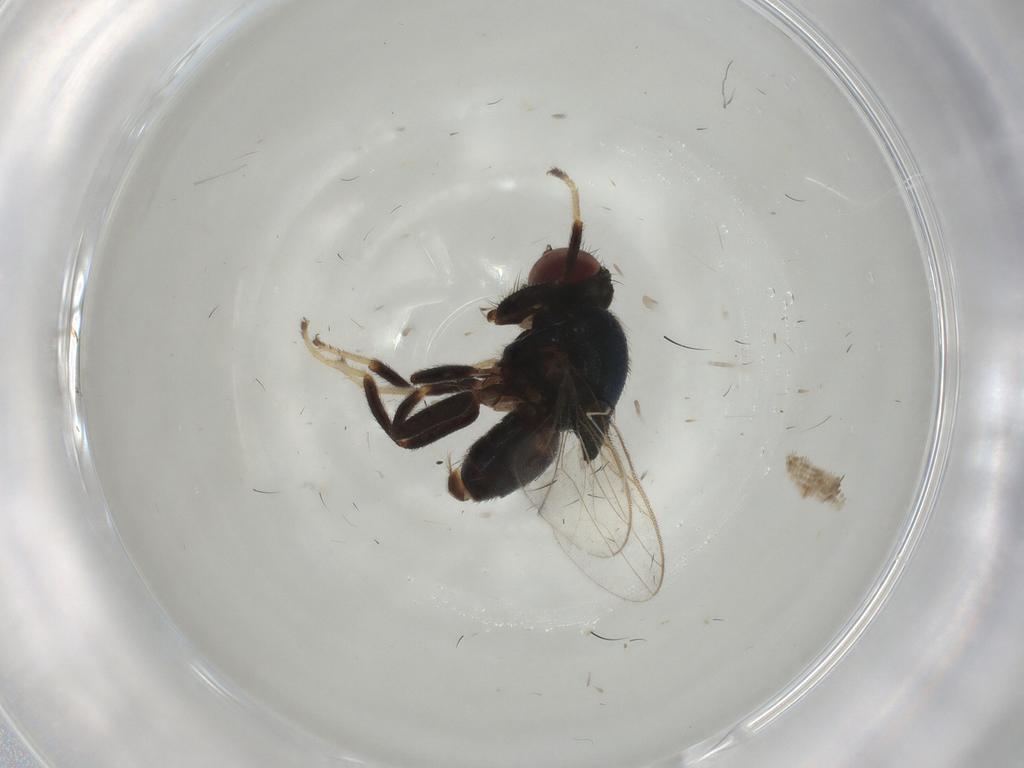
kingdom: Animalia
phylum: Arthropoda
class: Insecta
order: Diptera
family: Chloropidae
